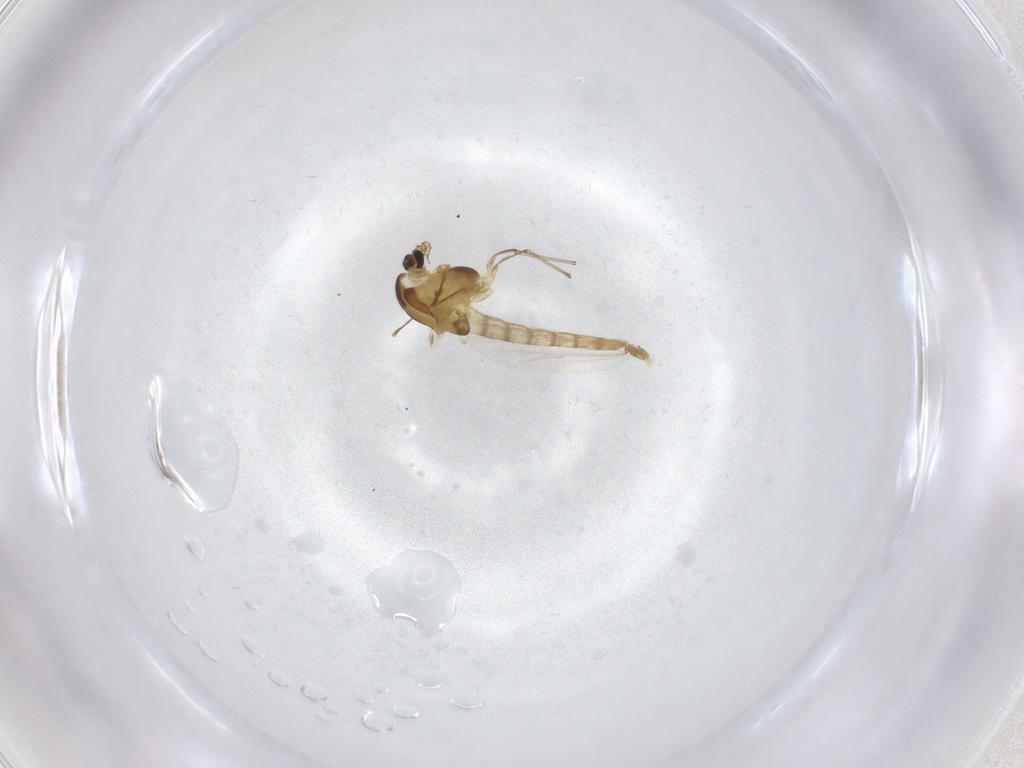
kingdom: Animalia
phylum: Arthropoda
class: Insecta
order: Diptera
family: Chironomidae
